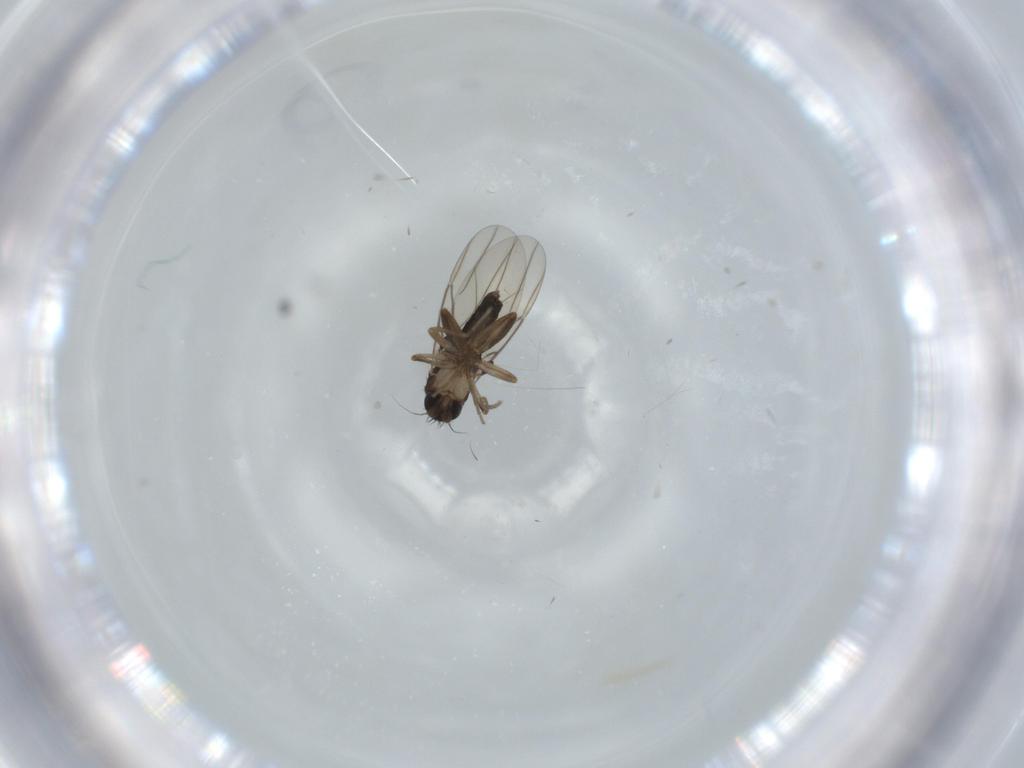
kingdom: Animalia
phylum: Arthropoda
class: Insecta
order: Diptera
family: Phoridae
